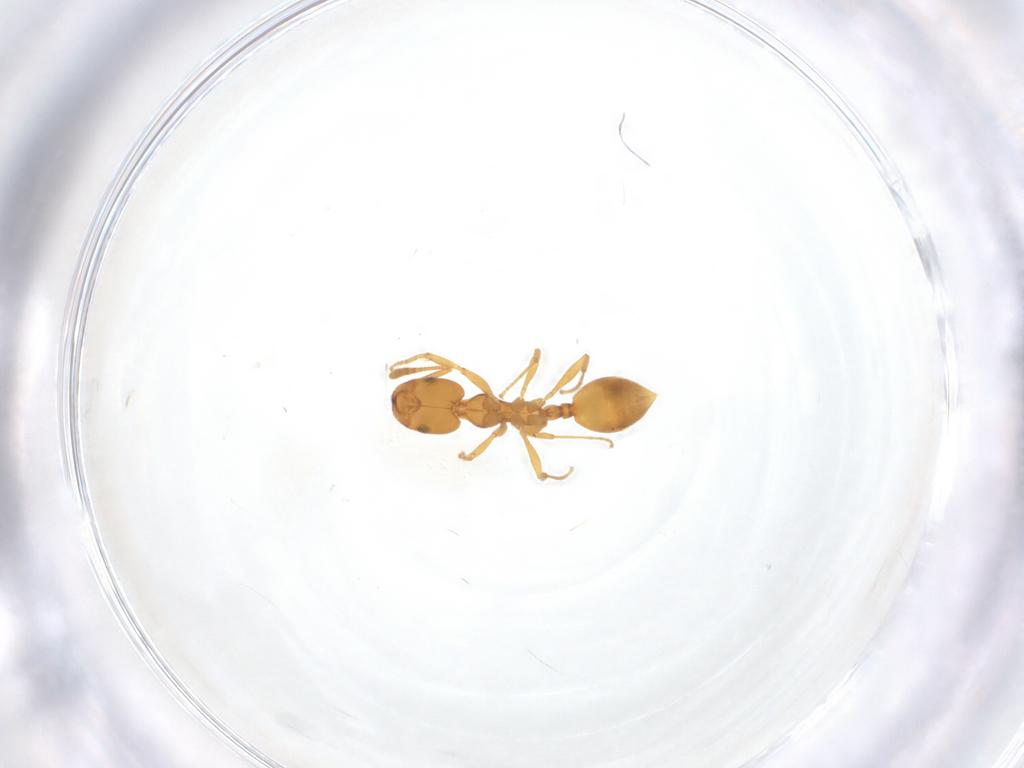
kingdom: Animalia
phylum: Arthropoda
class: Insecta
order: Hymenoptera
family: Formicidae
